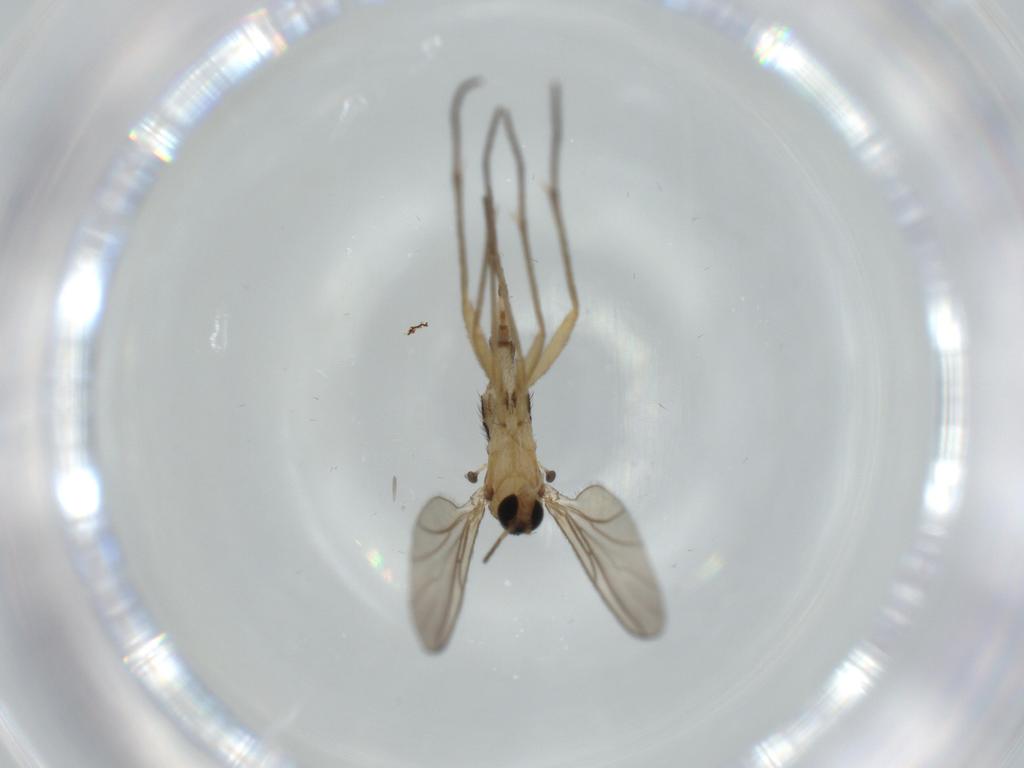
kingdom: Animalia
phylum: Arthropoda
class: Insecta
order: Diptera
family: Sciaridae
